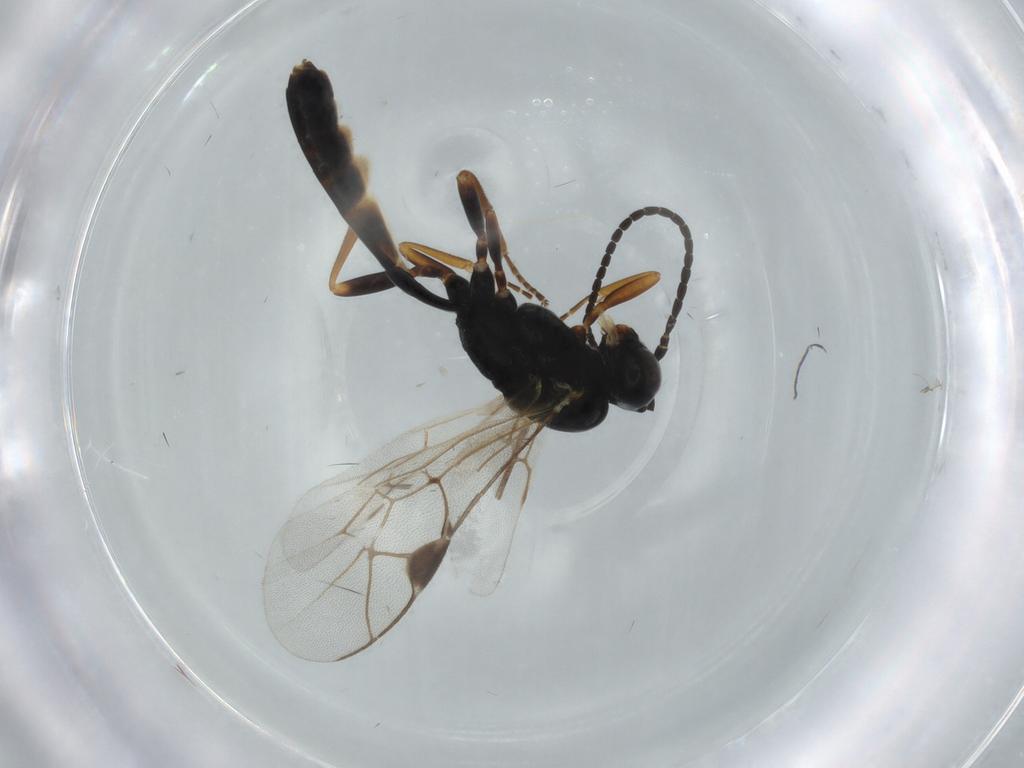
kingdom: Animalia
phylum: Arthropoda
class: Insecta
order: Hymenoptera
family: Ichneumonidae
